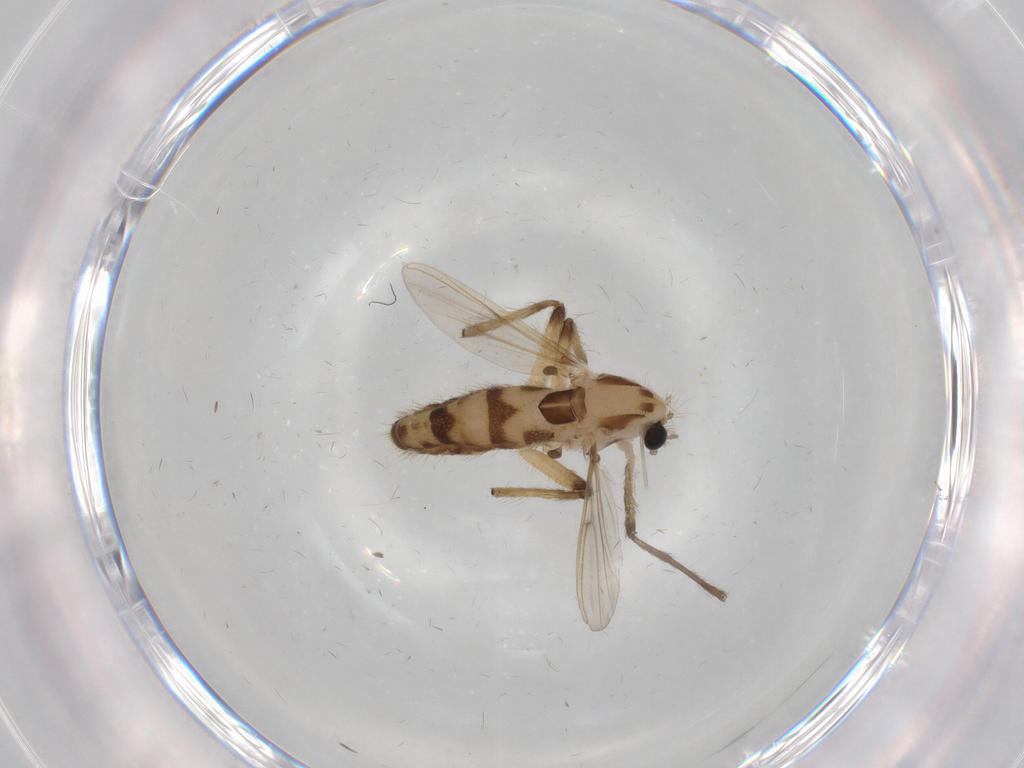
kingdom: Animalia
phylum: Arthropoda
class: Insecta
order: Diptera
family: Chironomidae
